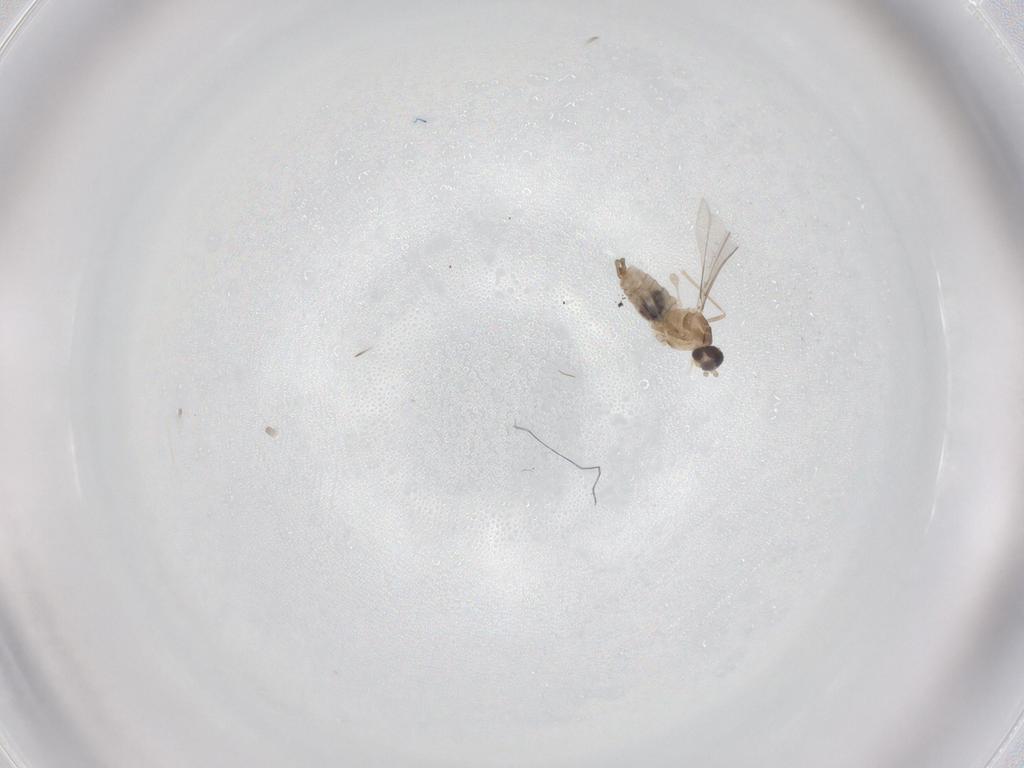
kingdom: Animalia
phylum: Arthropoda
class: Insecta
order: Diptera
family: Cecidomyiidae
